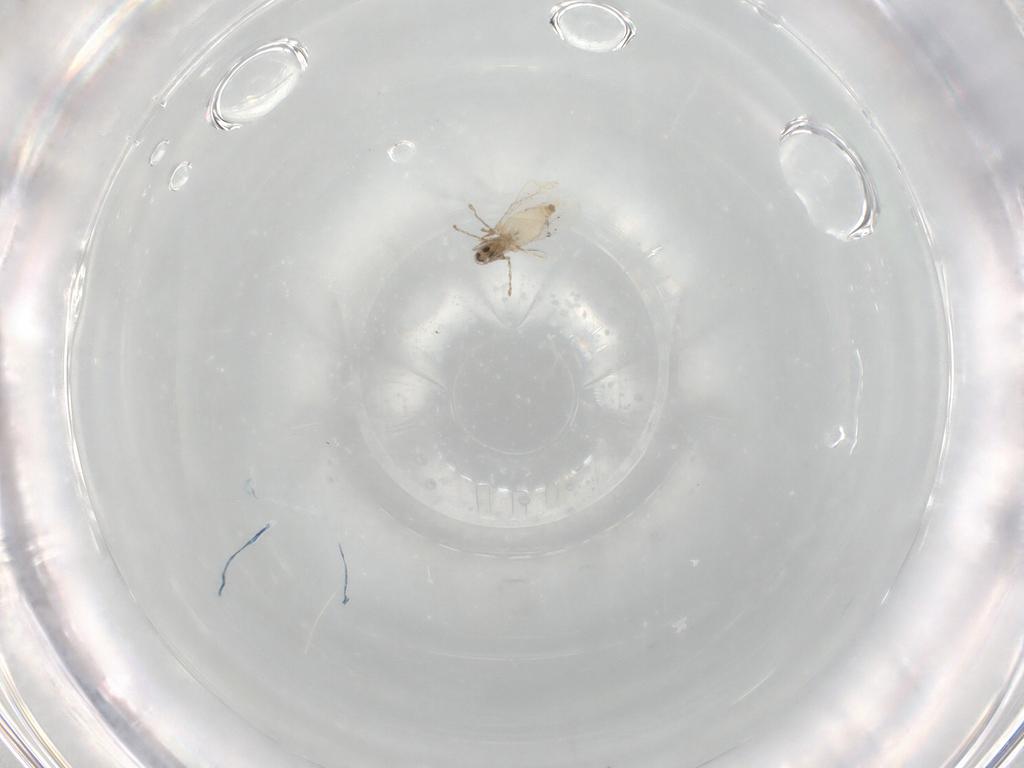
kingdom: Animalia
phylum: Arthropoda
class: Insecta
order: Diptera
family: Cecidomyiidae
